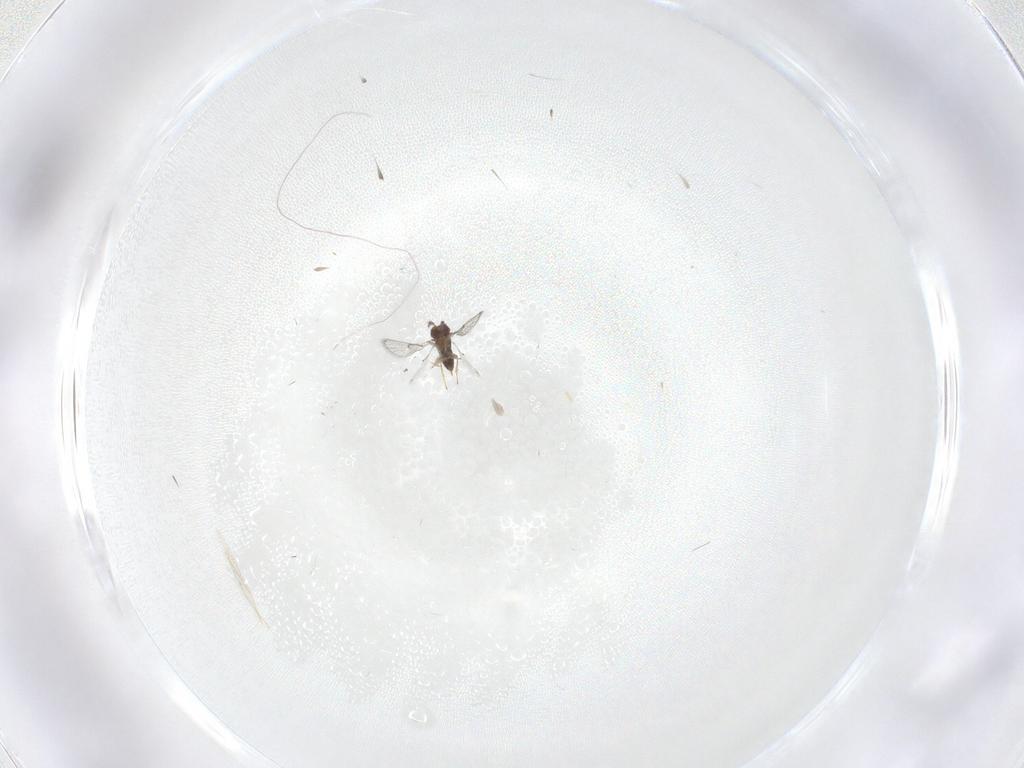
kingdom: Animalia
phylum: Arthropoda
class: Insecta
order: Hymenoptera
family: Trichogrammatidae
